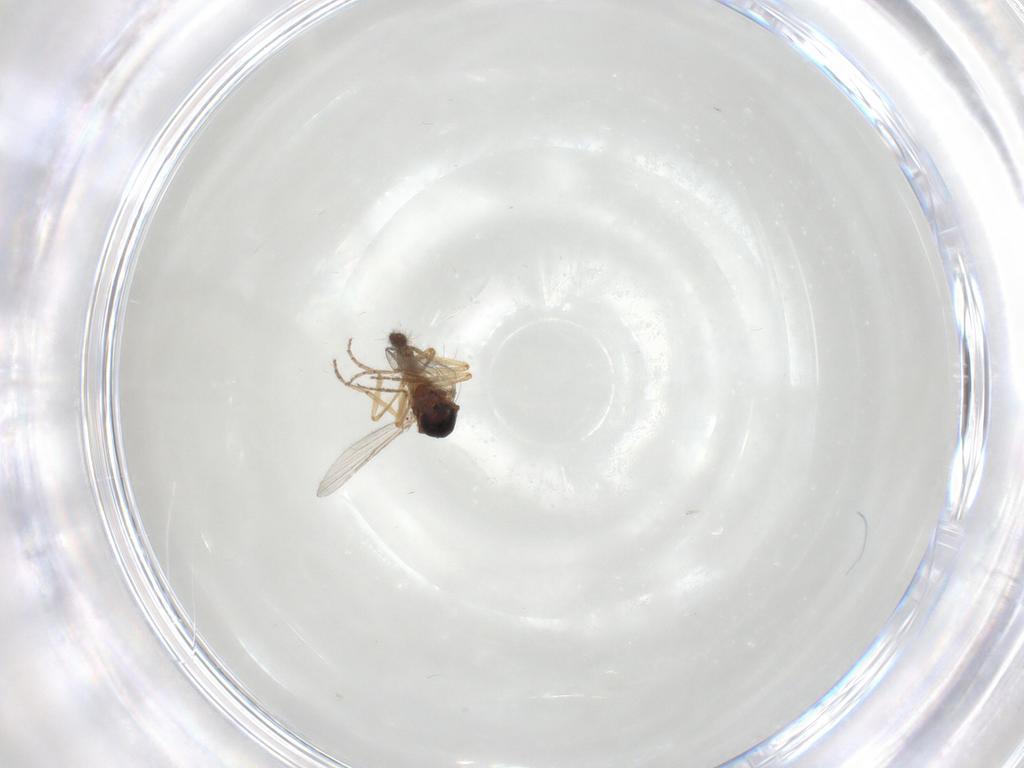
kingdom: Animalia
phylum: Arthropoda
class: Insecta
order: Diptera
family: Ceratopogonidae
